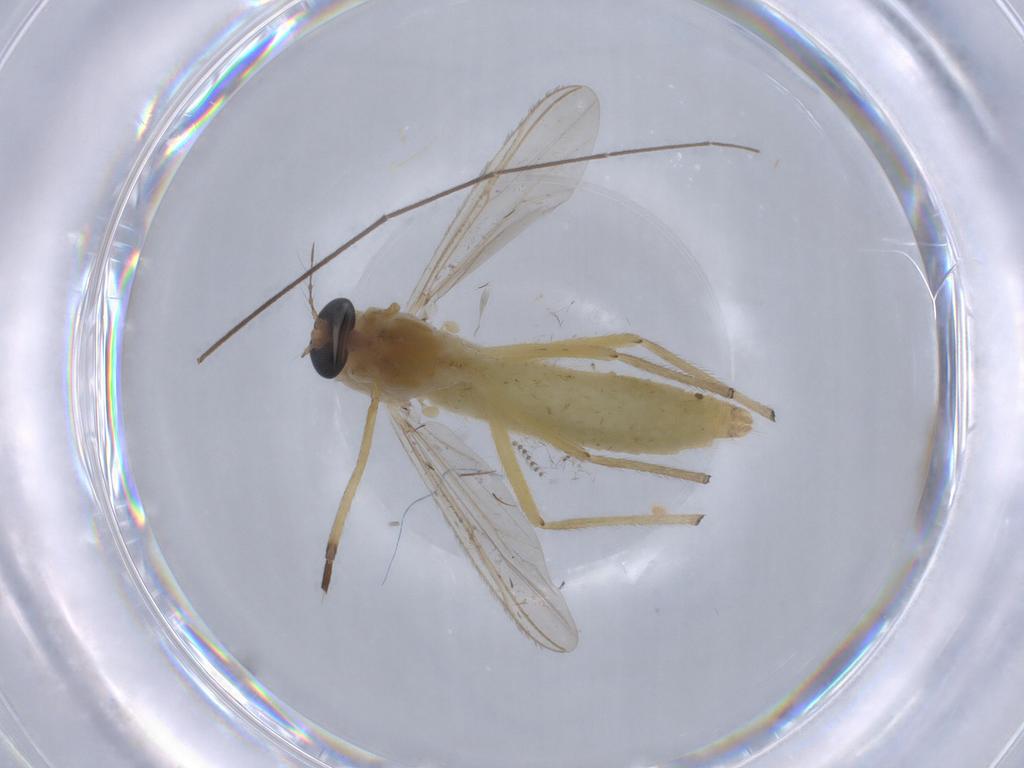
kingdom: Animalia
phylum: Arthropoda
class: Insecta
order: Diptera
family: Chironomidae
